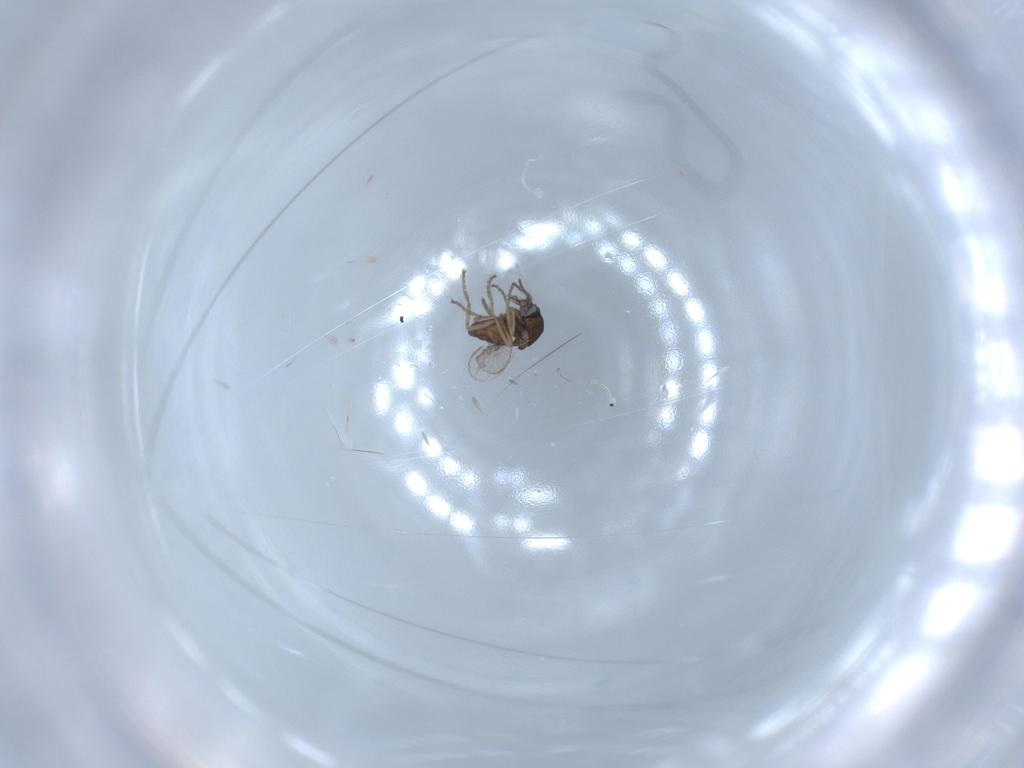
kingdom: Animalia
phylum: Arthropoda
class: Insecta
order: Diptera
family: Ceratopogonidae
